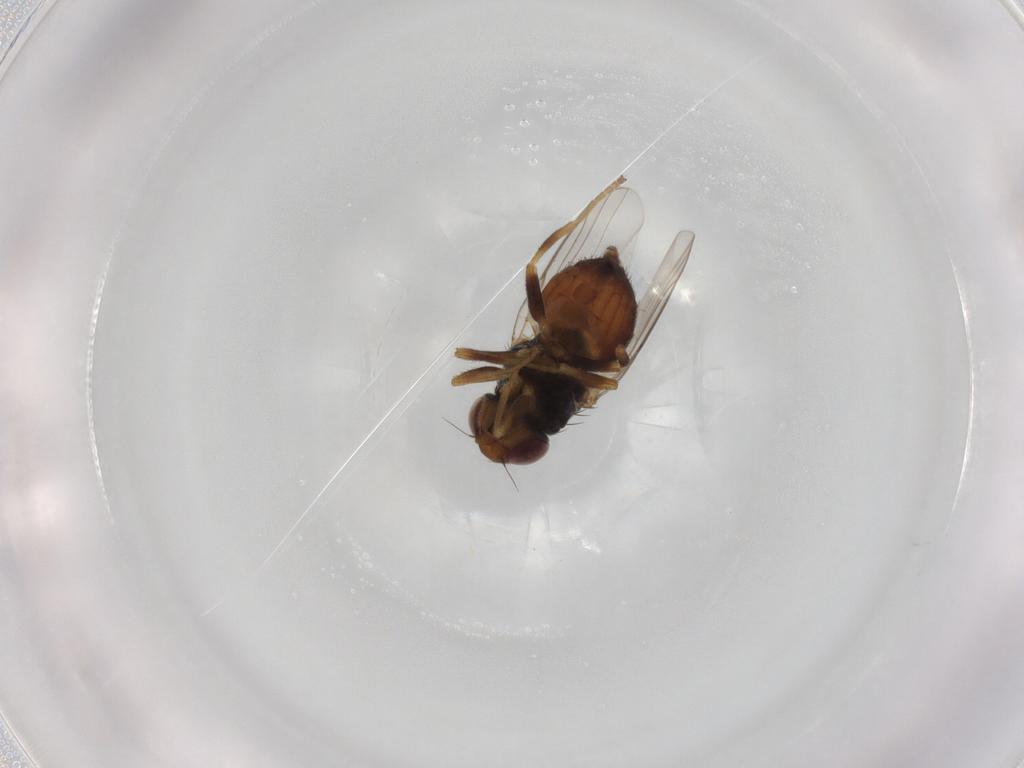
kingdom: Animalia
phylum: Arthropoda
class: Insecta
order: Diptera
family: Chloropidae
